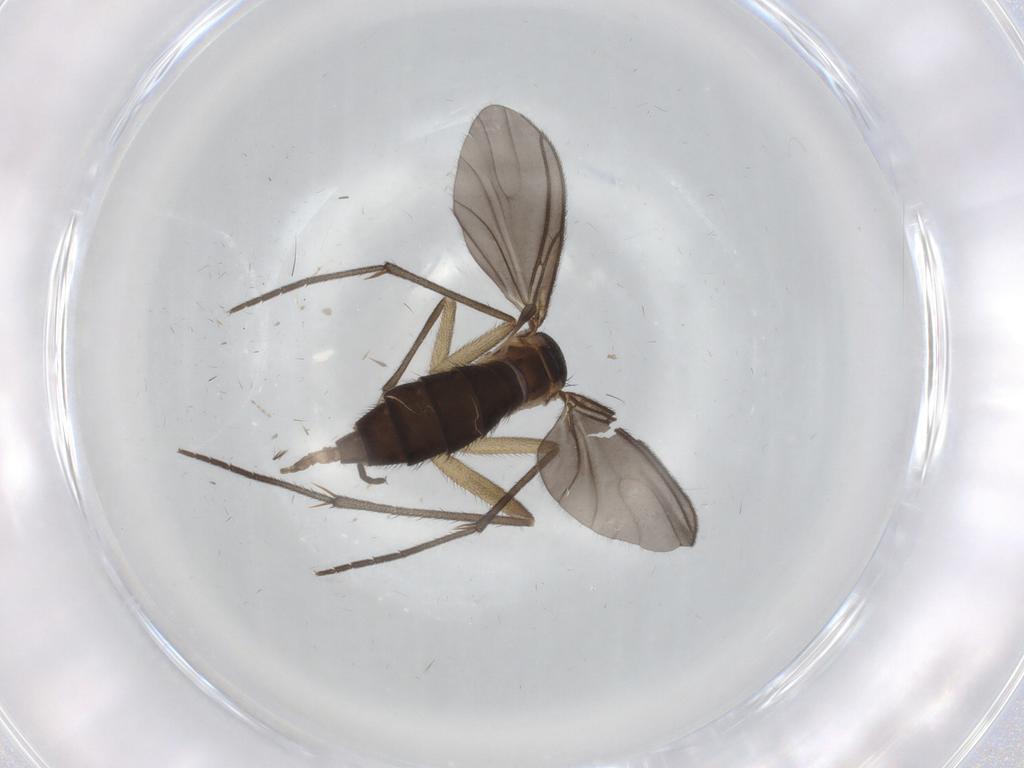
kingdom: Animalia
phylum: Arthropoda
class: Insecta
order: Diptera
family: Sciaridae
